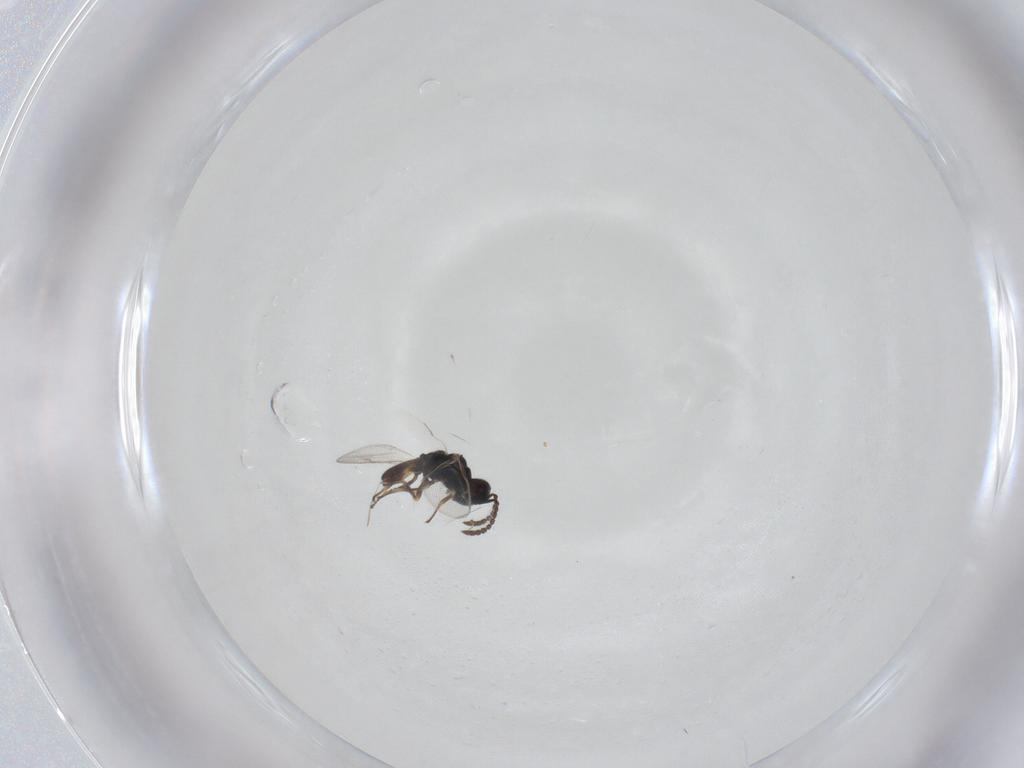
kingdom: Animalia
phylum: Arthropoda
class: Insecta
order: Hymenoptera
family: Pteromalidae
